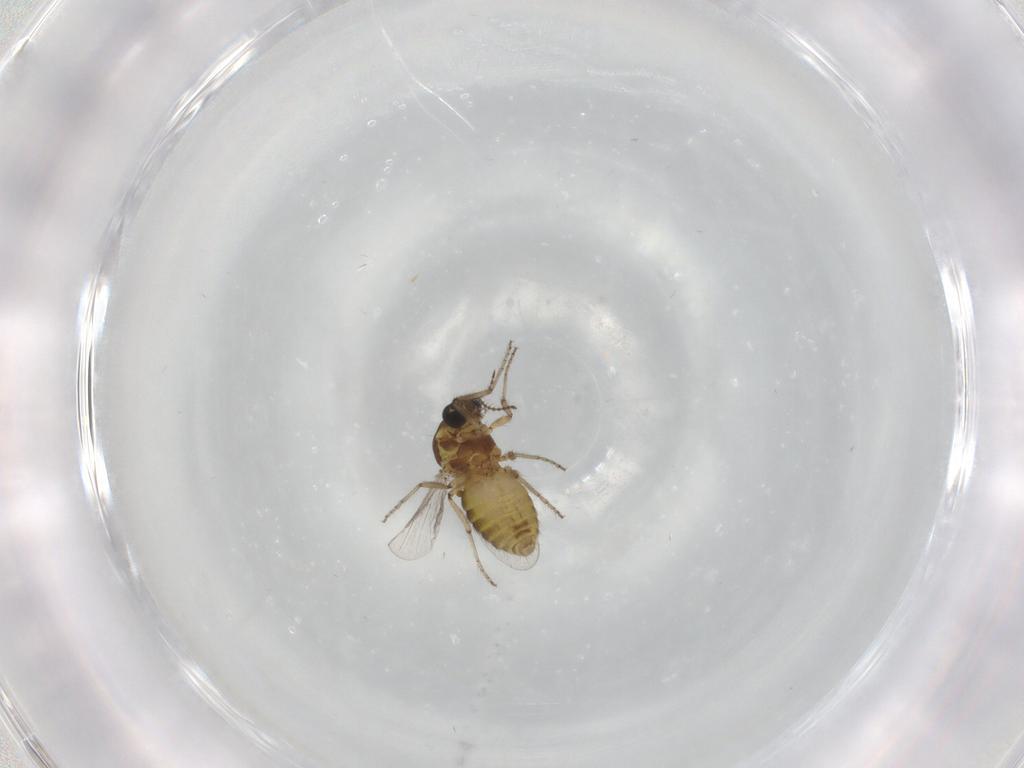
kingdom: Animalia
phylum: Arthropoda
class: Insecta
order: Diptera
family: Ceratopogonidae
